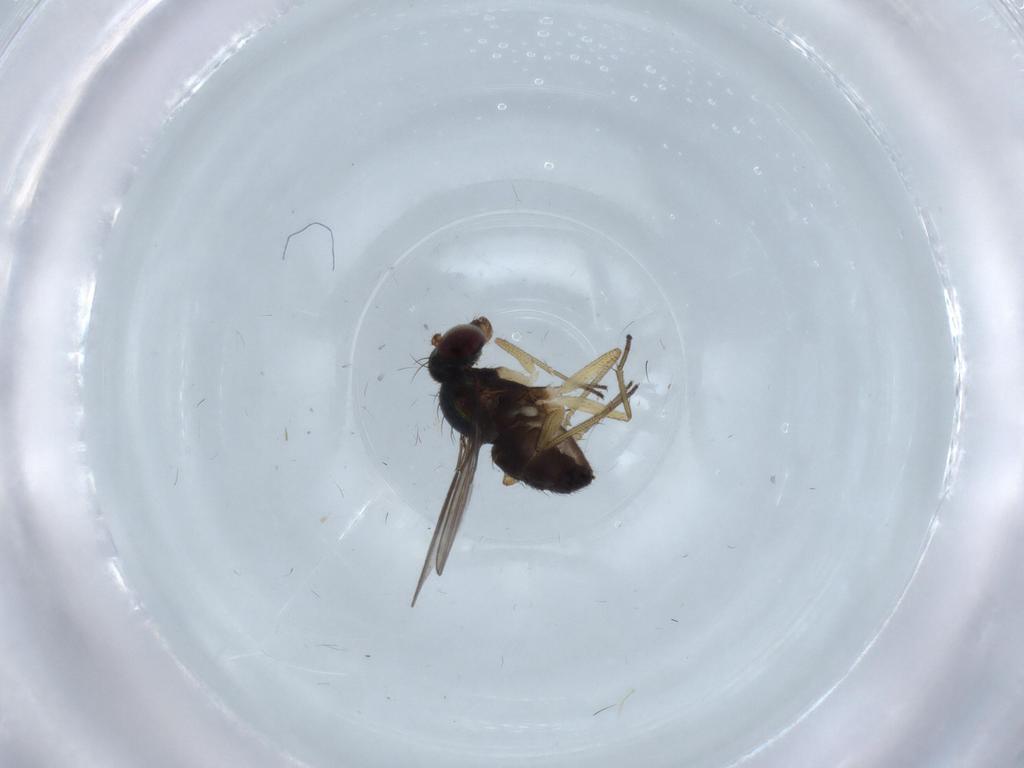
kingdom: Animalia
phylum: Arthropoda
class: Insecta
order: Diptera
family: Dolichopodidae
